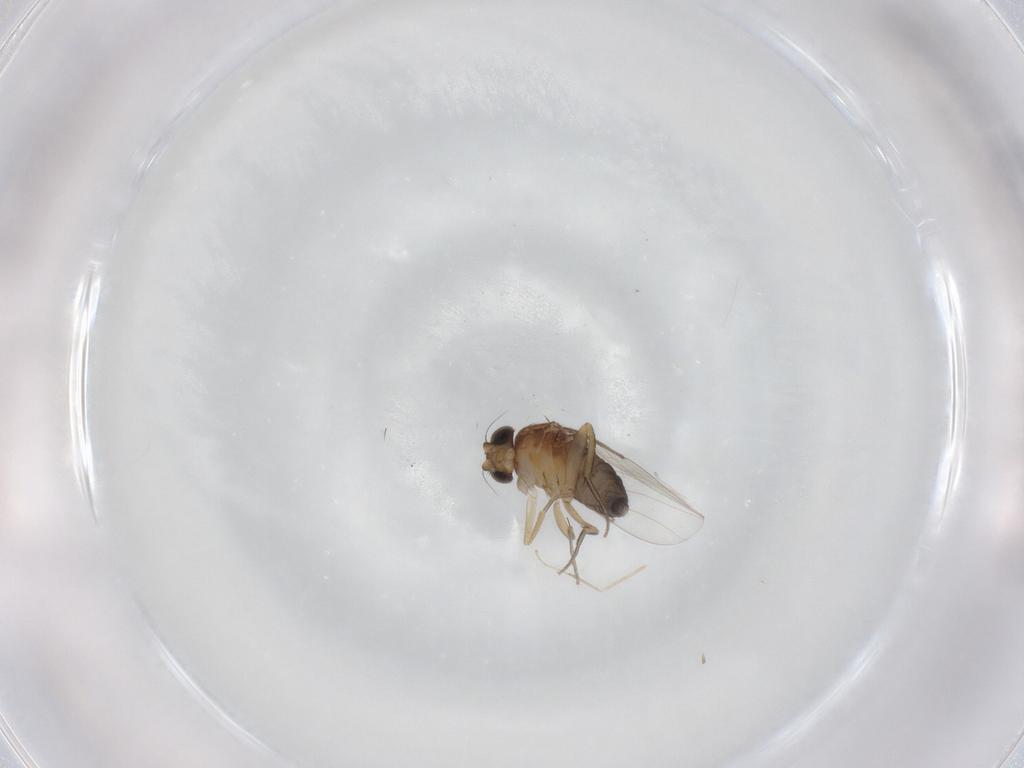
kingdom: Animalia
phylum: Arthropoda
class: Insecta
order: Diptera
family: Phoridae
